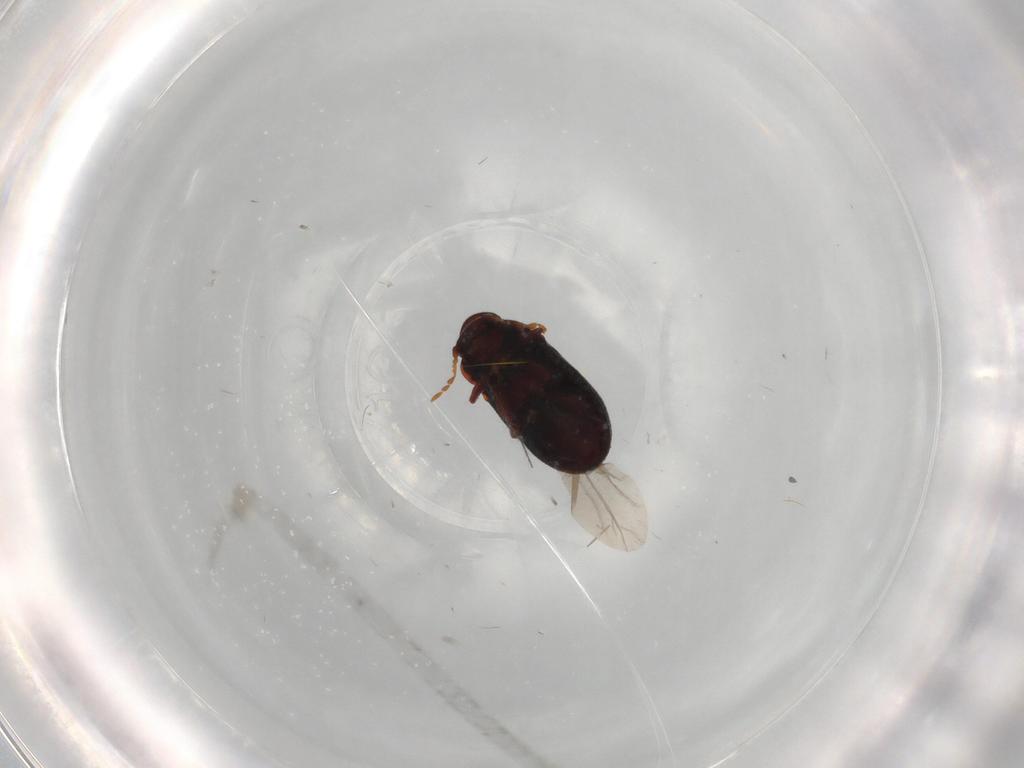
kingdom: Animalia
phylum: Arthropoda
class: Insecta
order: Coleoptera
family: Ptinidae
